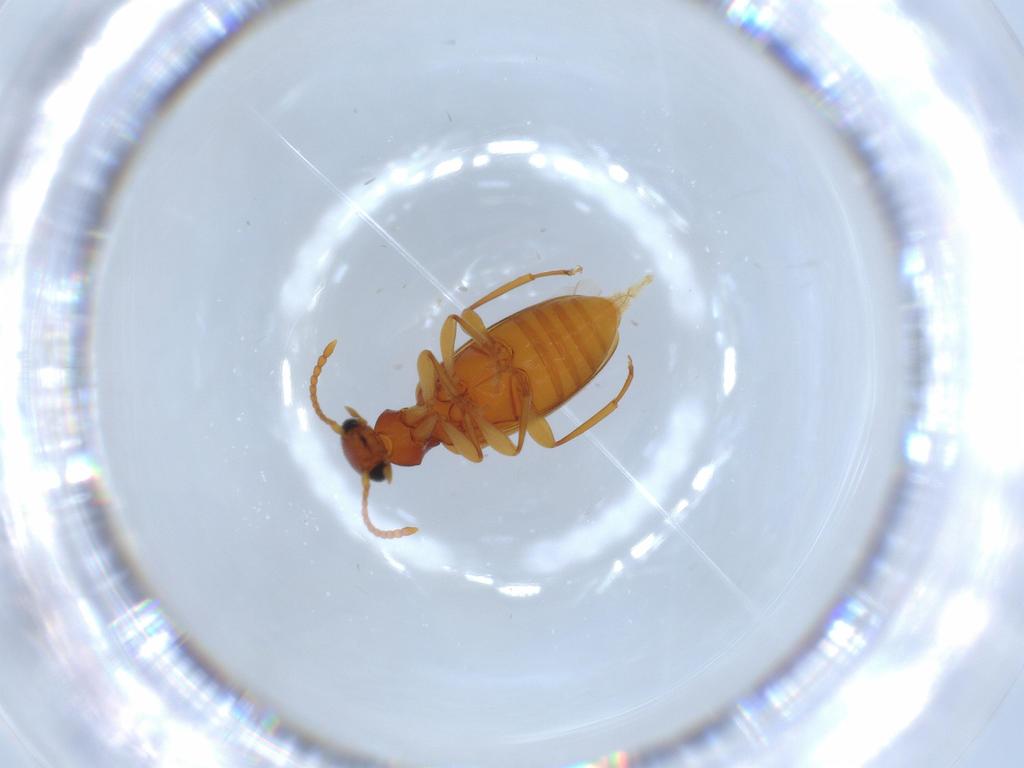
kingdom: Animalia
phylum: Arthropoda
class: Insecta
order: Coleoptera
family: Anthicidae
